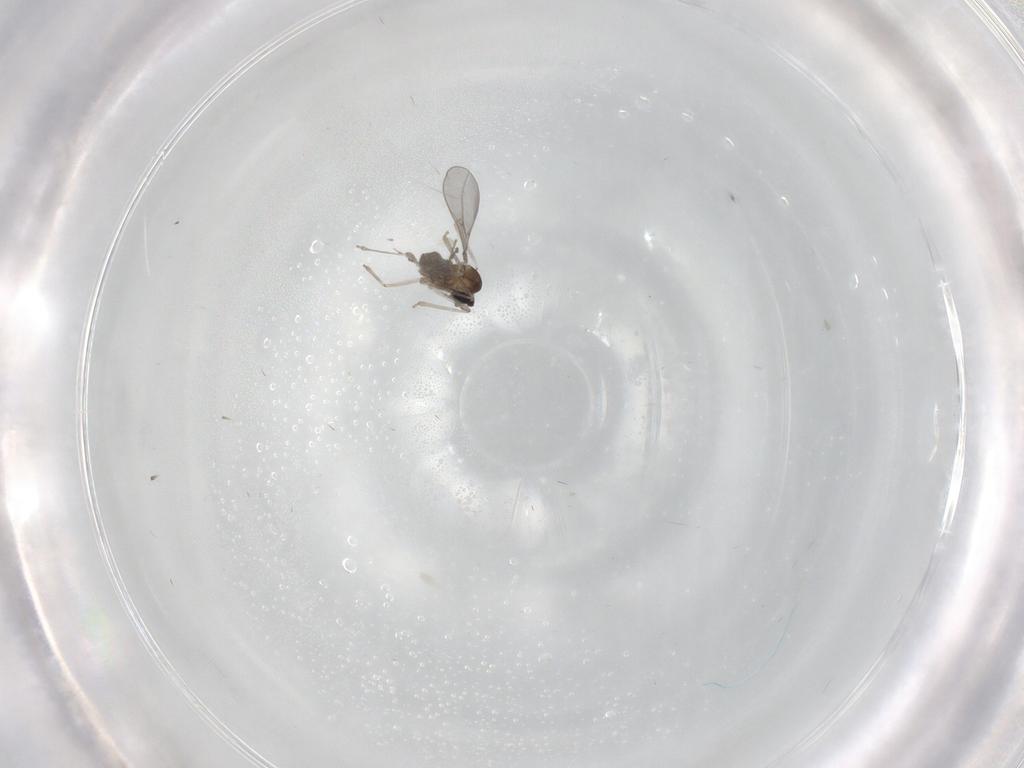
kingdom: Animalia
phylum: Arthropoda
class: Insecta
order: Diptera
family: Cecidomyiidae
